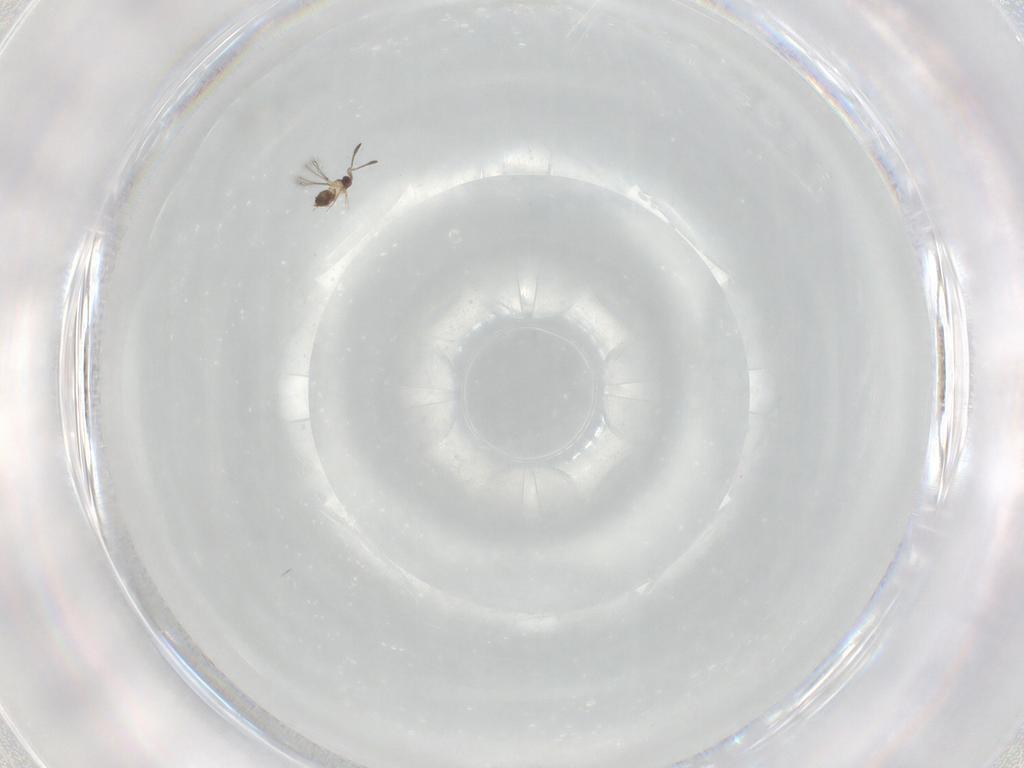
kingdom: Animalia
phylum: Arthropoda
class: Insecta
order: Hymenoptera
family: Mymaridae
